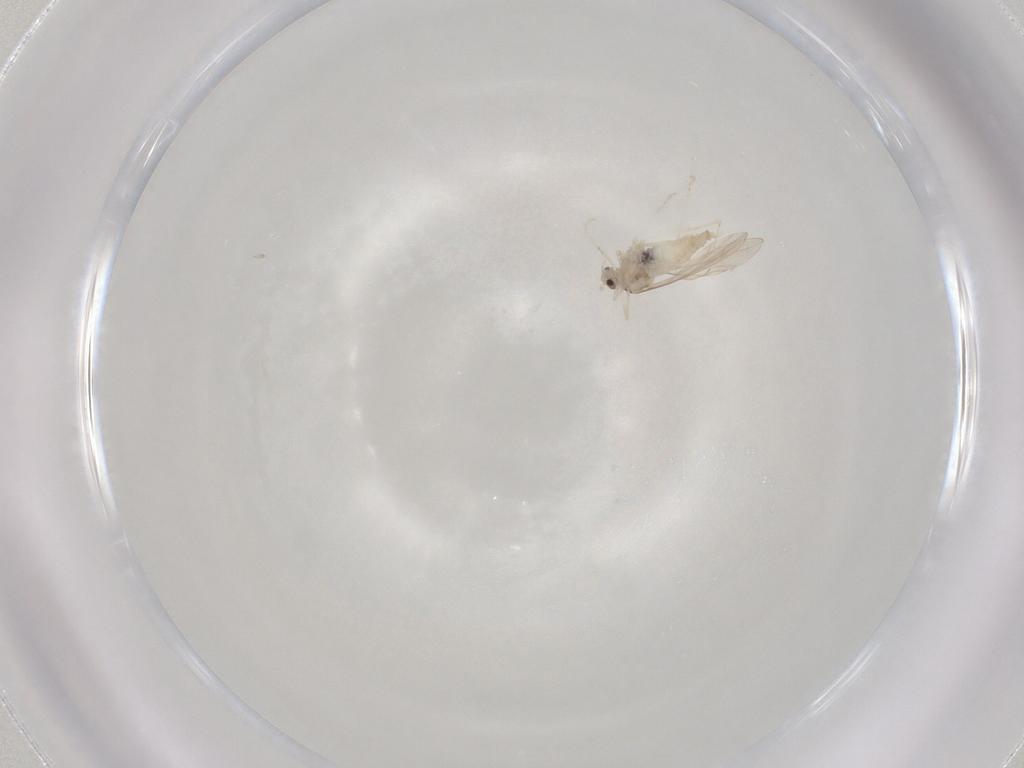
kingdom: Animalia
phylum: Arthropoda
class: Insecta
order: Diptera
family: Cecidomyiidae
